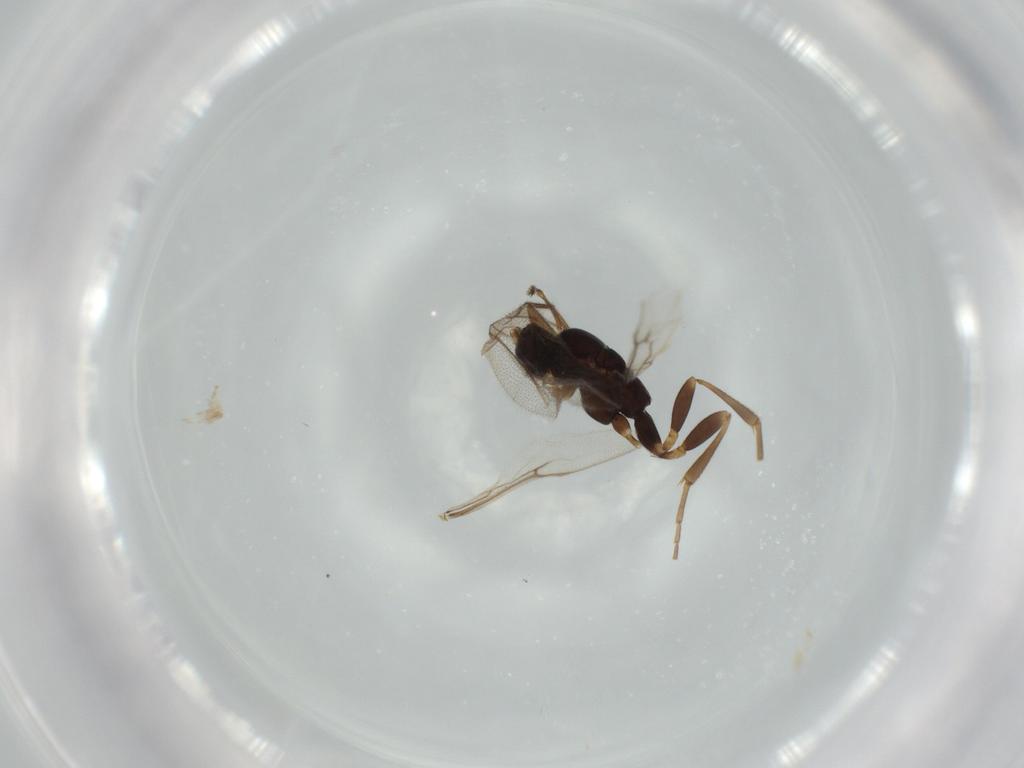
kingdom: Animalia
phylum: Arthropoda
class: Insecta
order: Hymenoptera
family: Ichneumonidae
